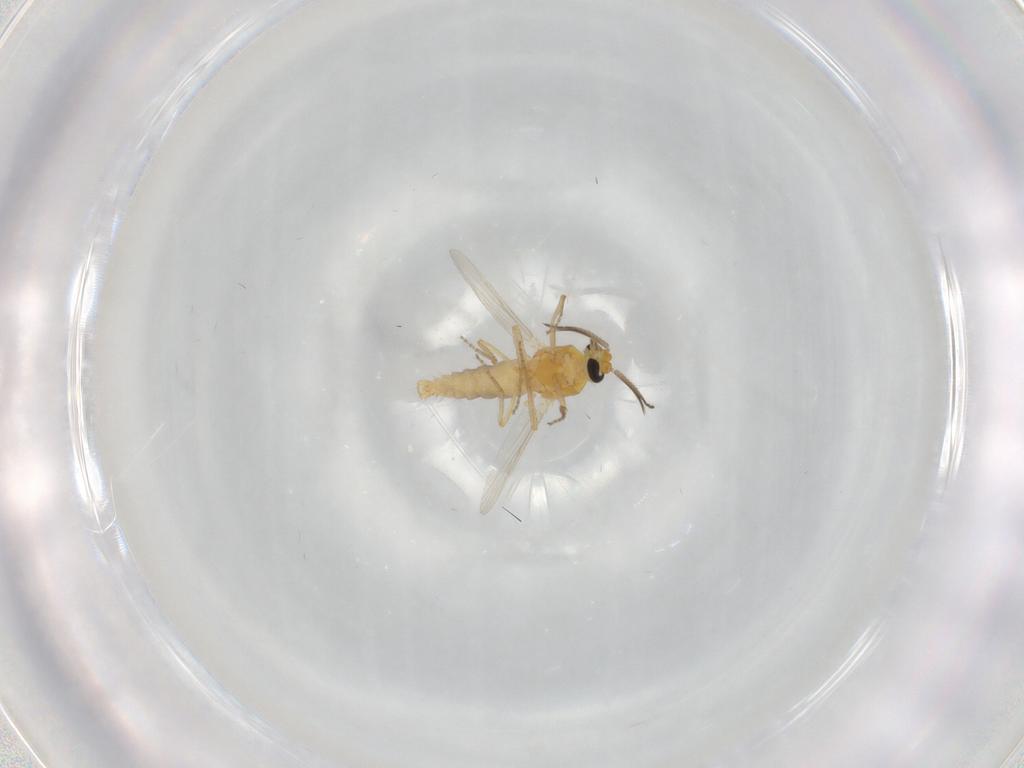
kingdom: Animalia
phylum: Arthropoda
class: Insecta
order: Diptera
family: Ceratopogonidae
